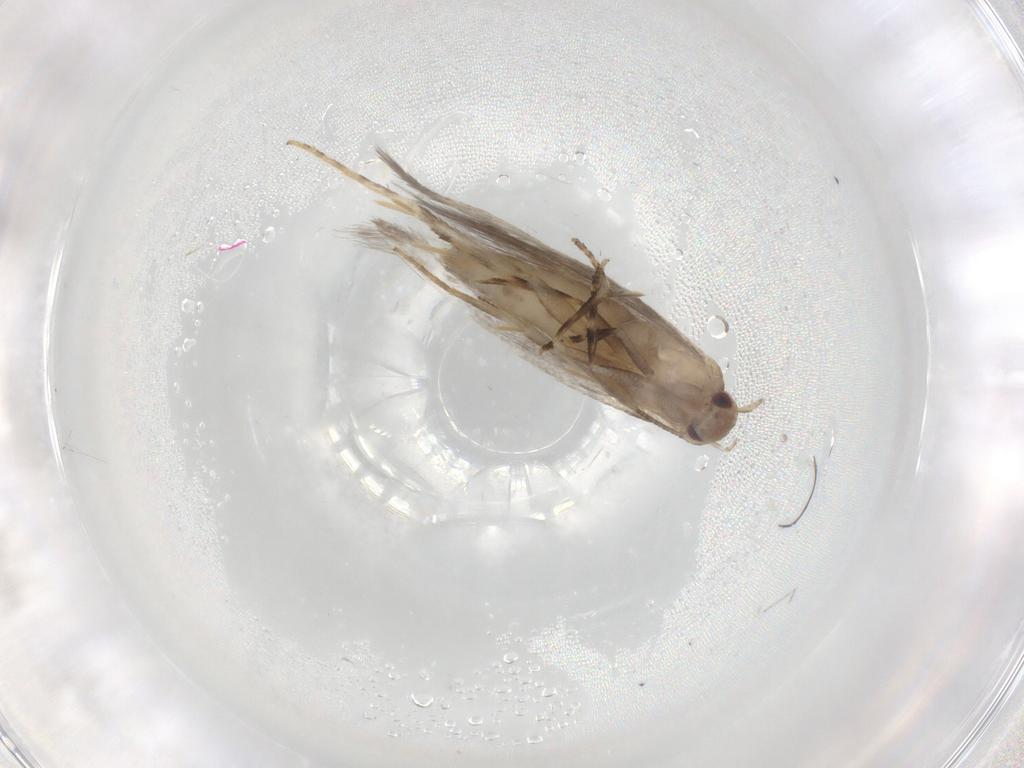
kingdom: Animalia
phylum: Arthropoda
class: Insecta
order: Lepidoptera
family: Elachistidae
